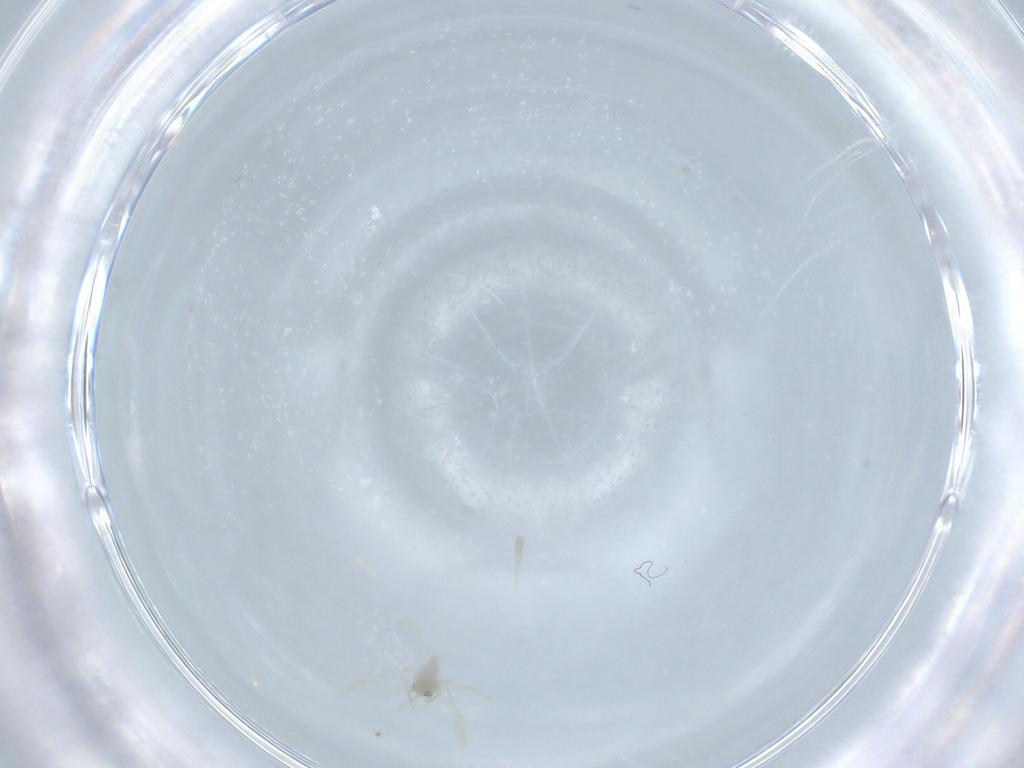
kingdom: Animalia
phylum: Arthropoda
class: Insecta
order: Hemiptera
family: Aleyrodidae
